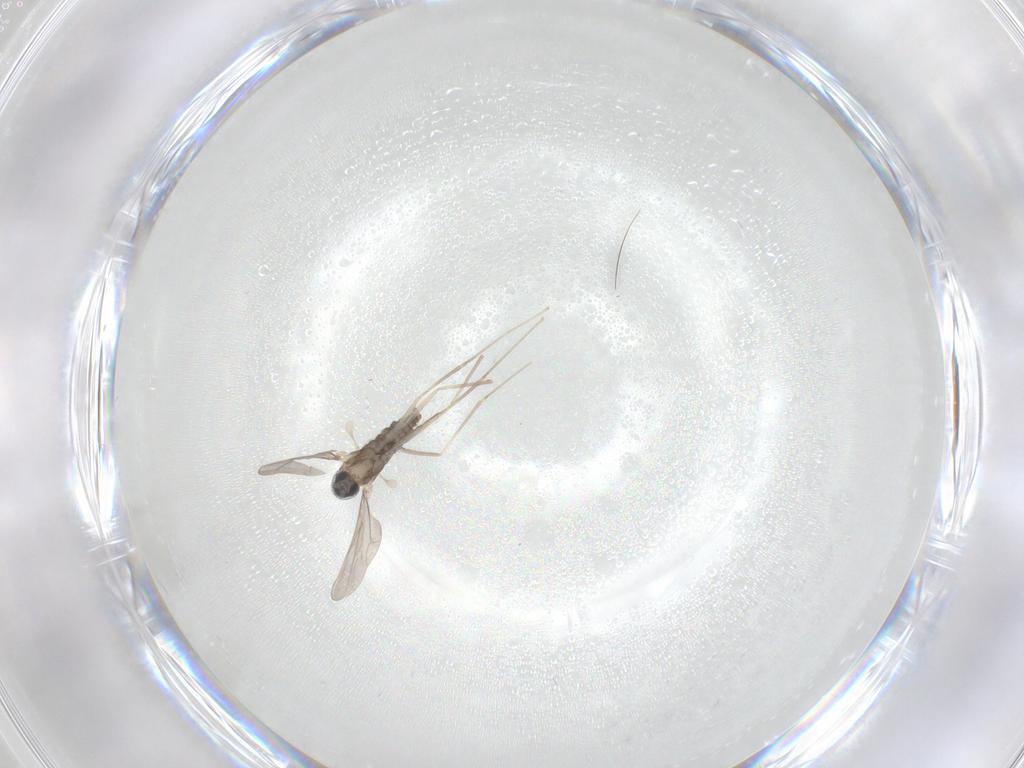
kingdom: Animalia
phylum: Arthropoda
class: Insecta
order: Diptera
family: Cecidomyiidae
